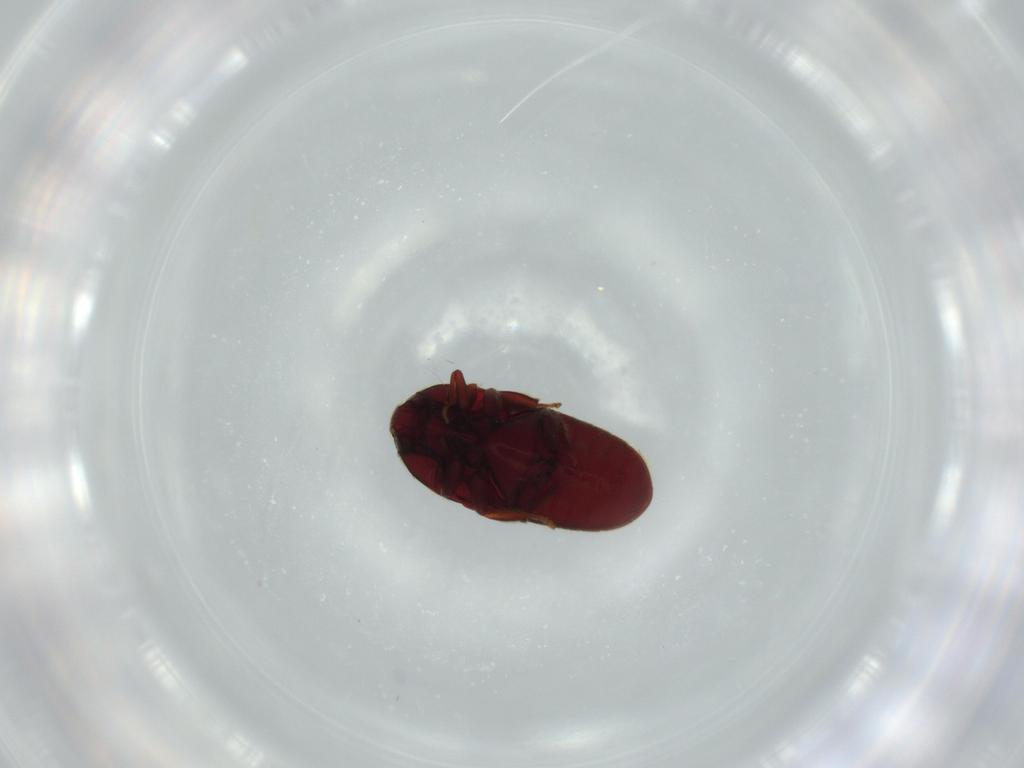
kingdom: Animalia
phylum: Arthropoda
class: Insecta
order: Coleoptera
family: Throscidae
